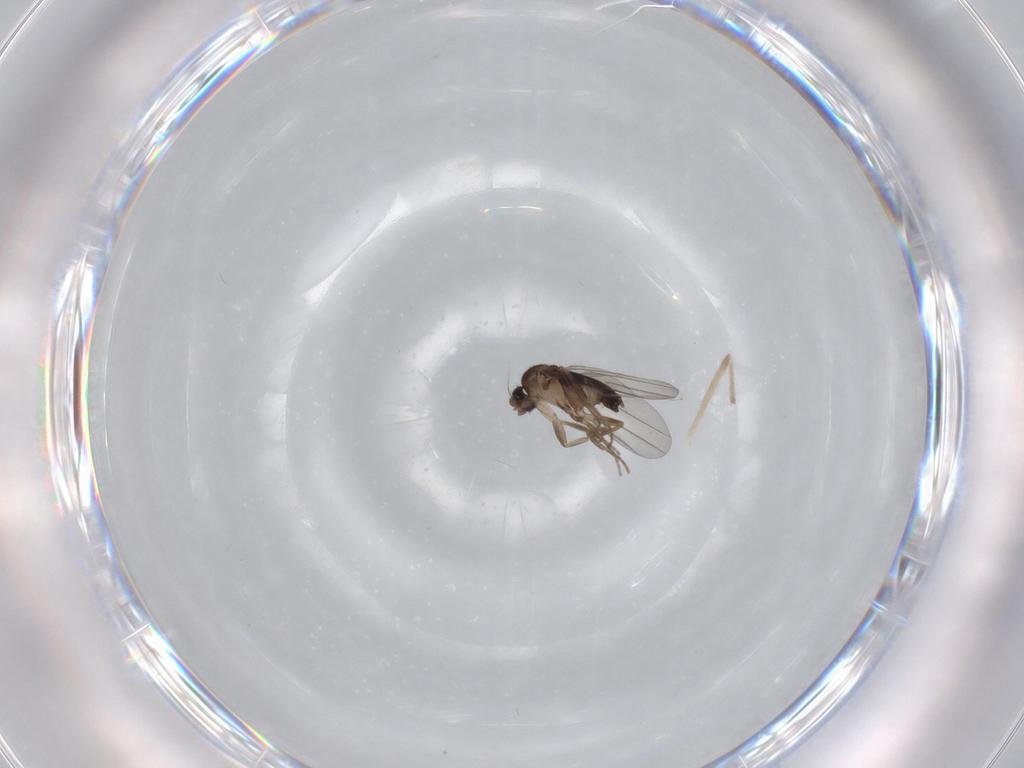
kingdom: Animalia
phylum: Arthropoda
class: Insecta
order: Diptera
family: Chironomidae
